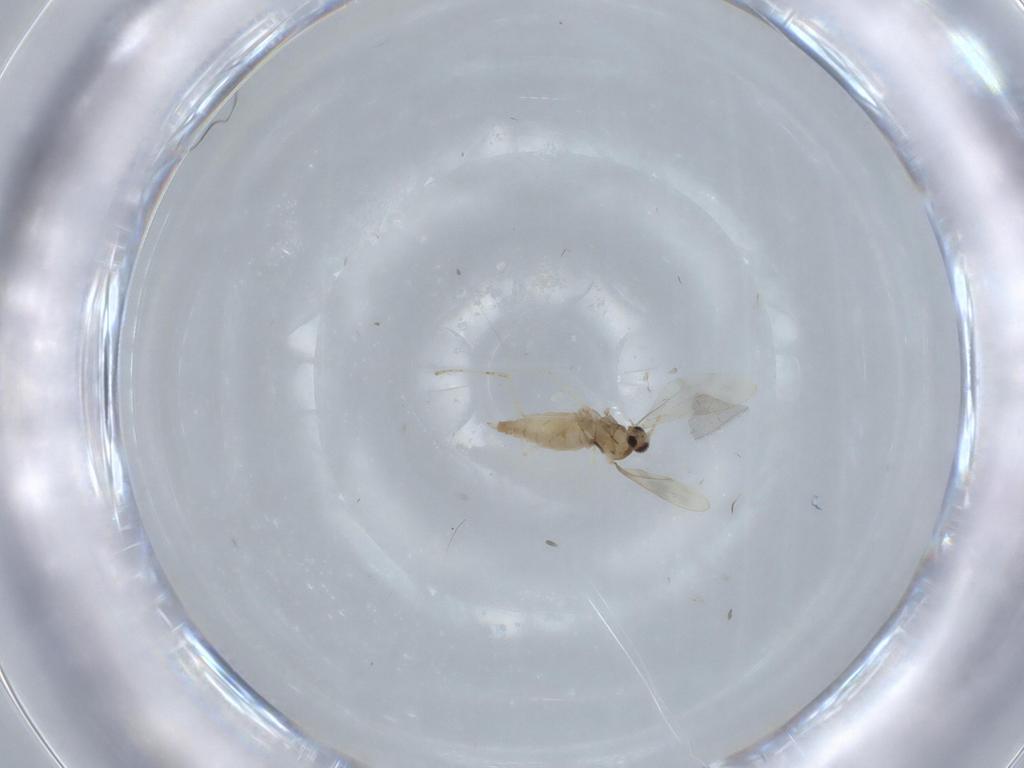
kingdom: Animalia
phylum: Arthropoda
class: Insecta
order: Diptera
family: Cecidomyiidae
